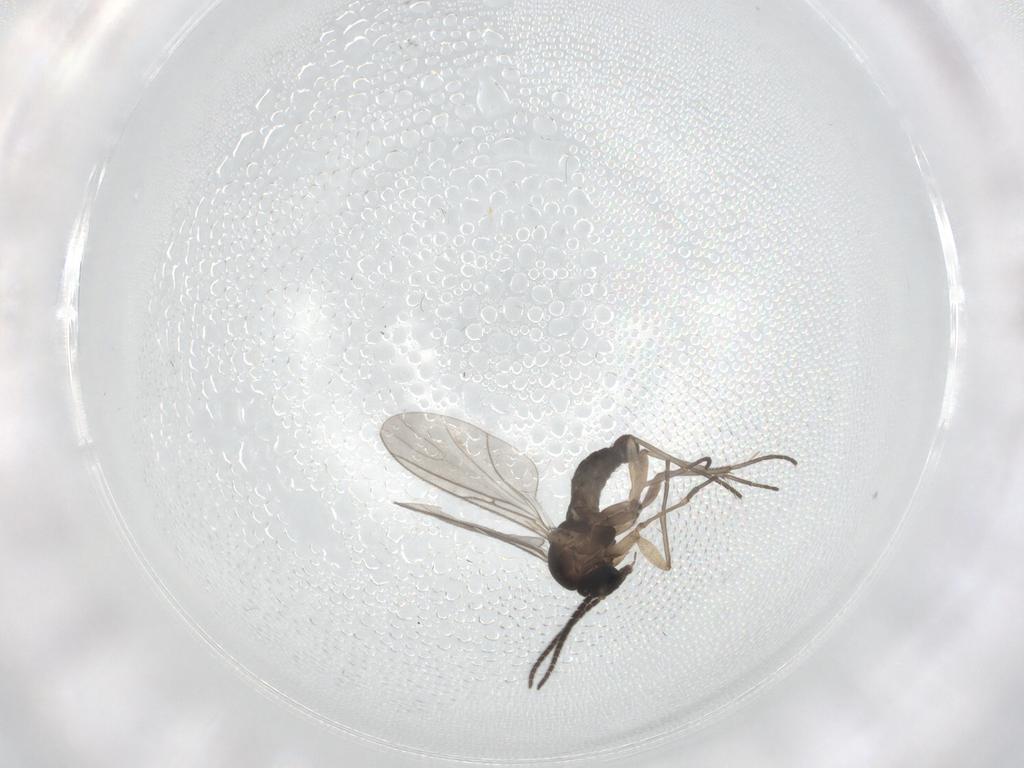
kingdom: Animalia
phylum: Arthropoda
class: Insecta
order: Diptera
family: Sciaridae
